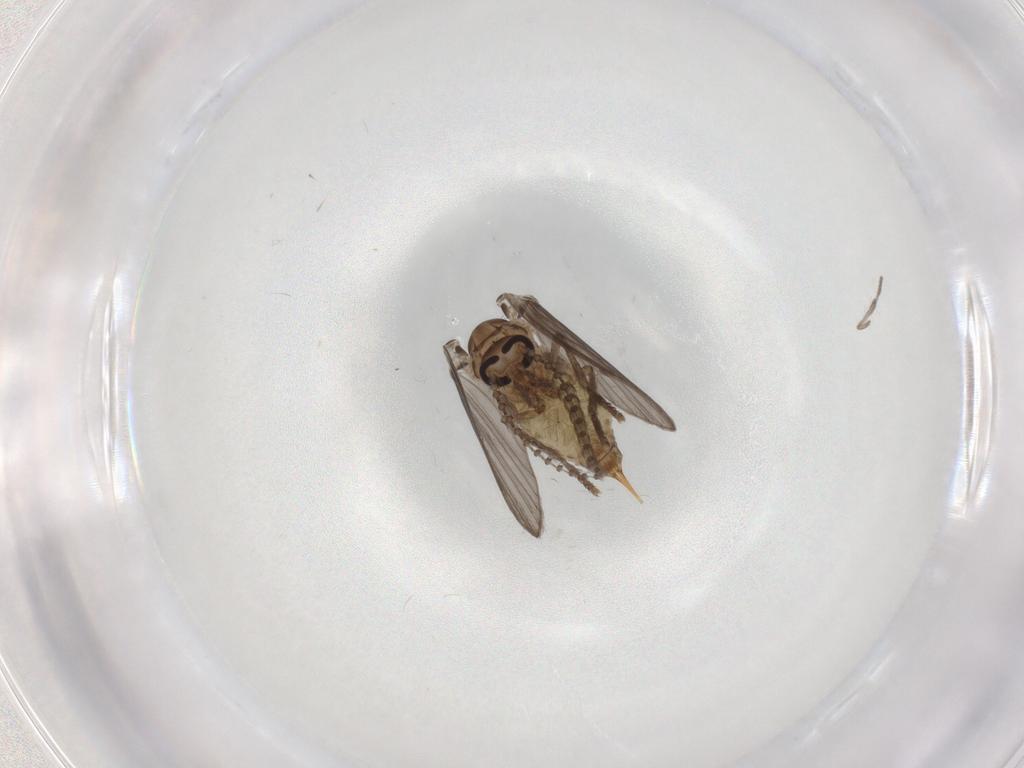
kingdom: Animalia
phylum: Arthropoda
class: Insecta
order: Diptera
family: Psychodidae
